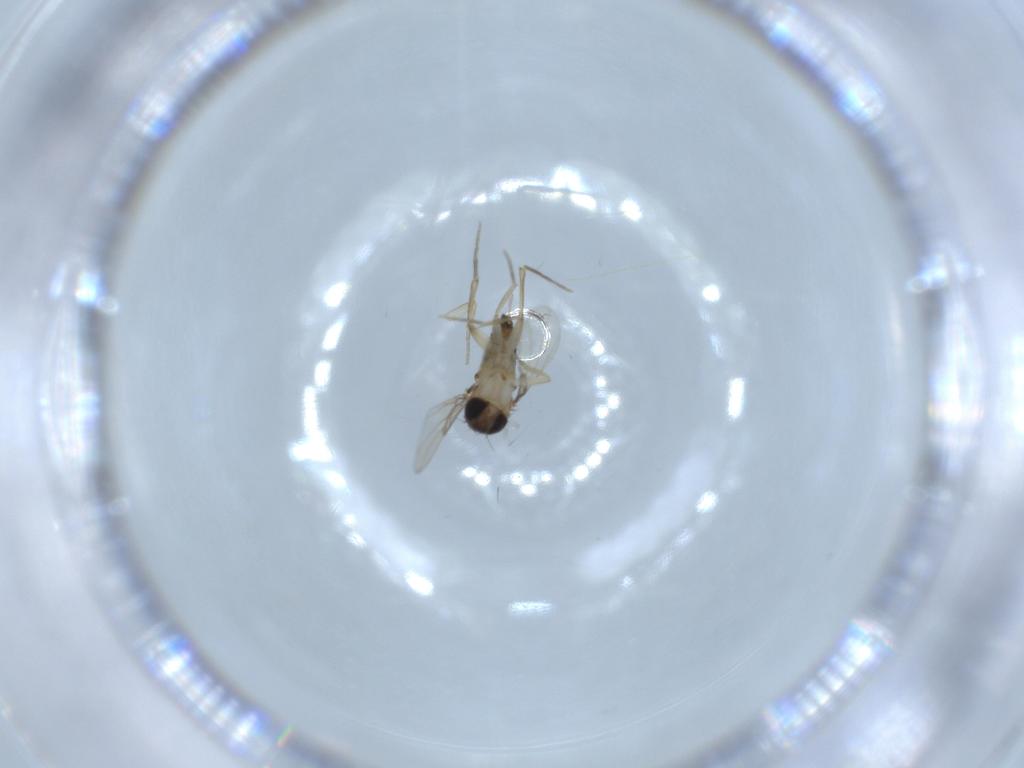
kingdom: Animalia
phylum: Arthropoda
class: Insecta
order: Diptera
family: Phoridae
